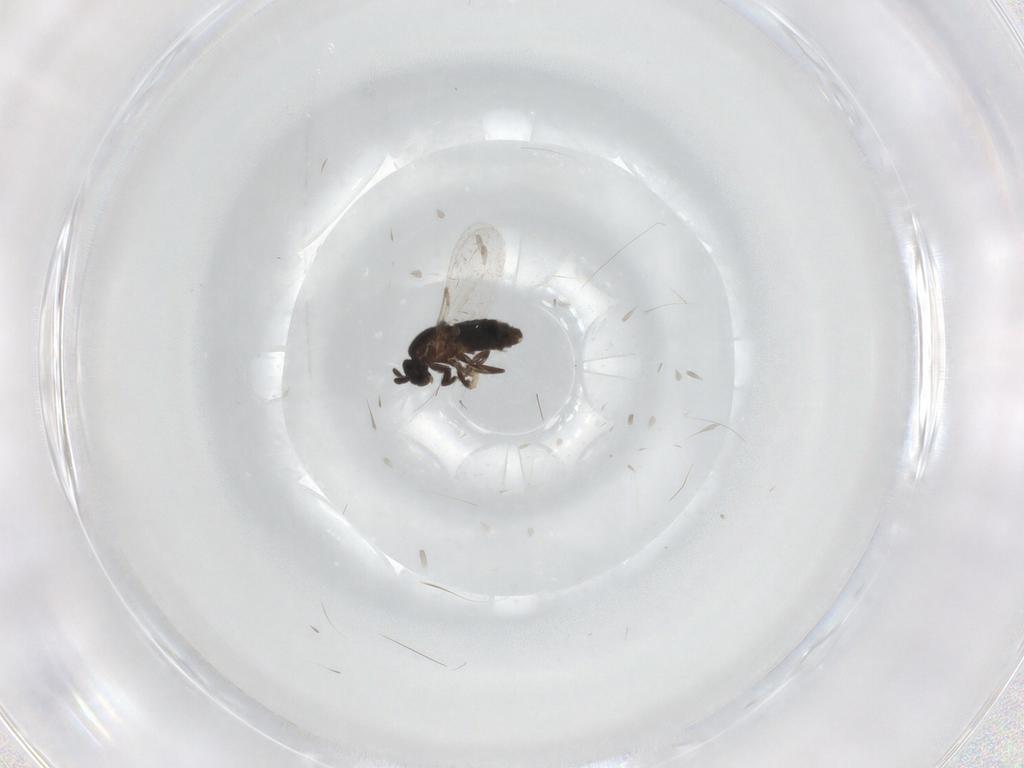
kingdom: Animalia
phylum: Arthropoda
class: Insecta
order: Diptera
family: Scatopsidae
